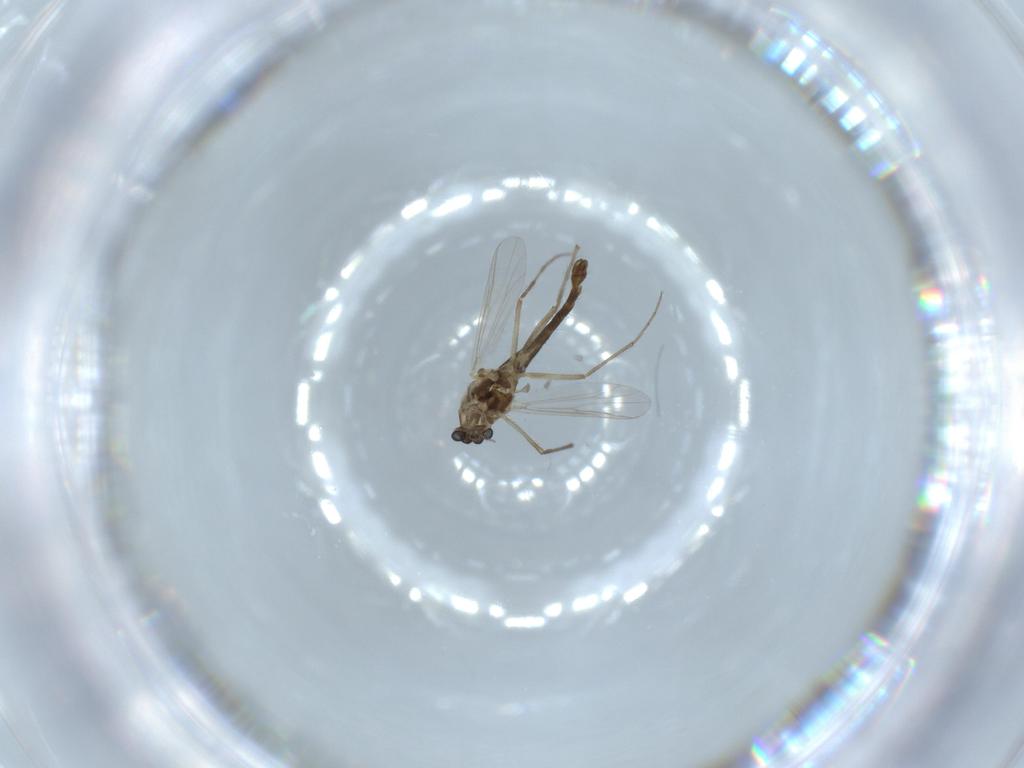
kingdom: Animalia
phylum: Arthropoda
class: Insecta
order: Diptera
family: Chironomidae
